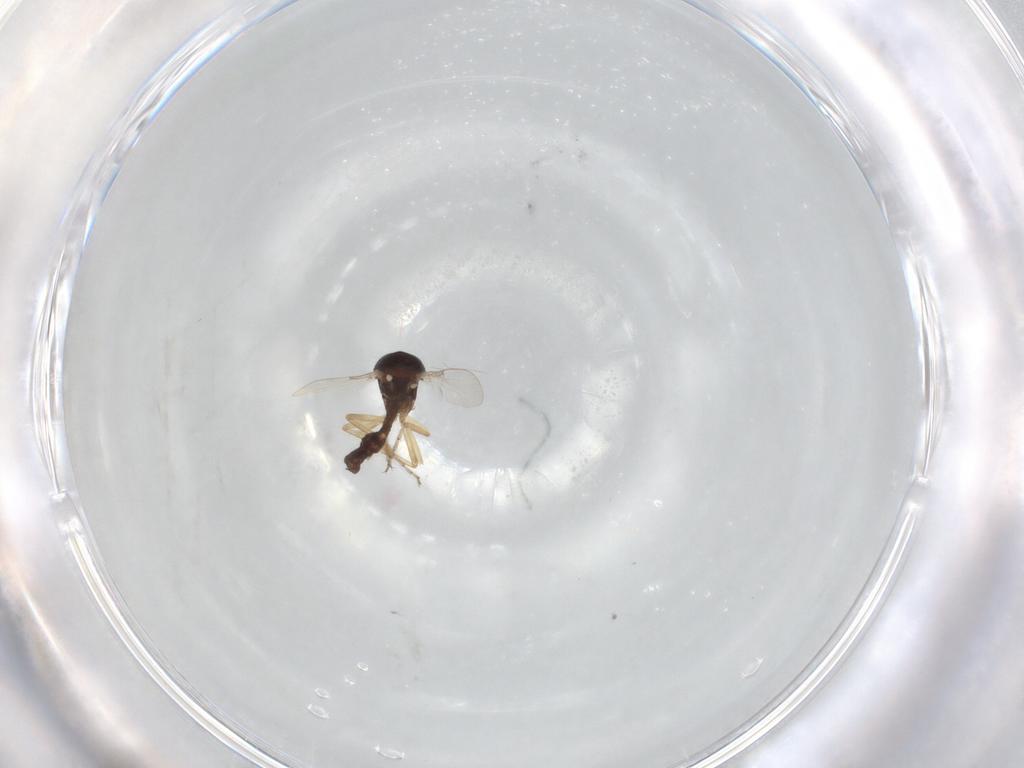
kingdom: Animalia
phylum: Arthropoda
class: Insecta
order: Diptera
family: Ceratopogonidae
